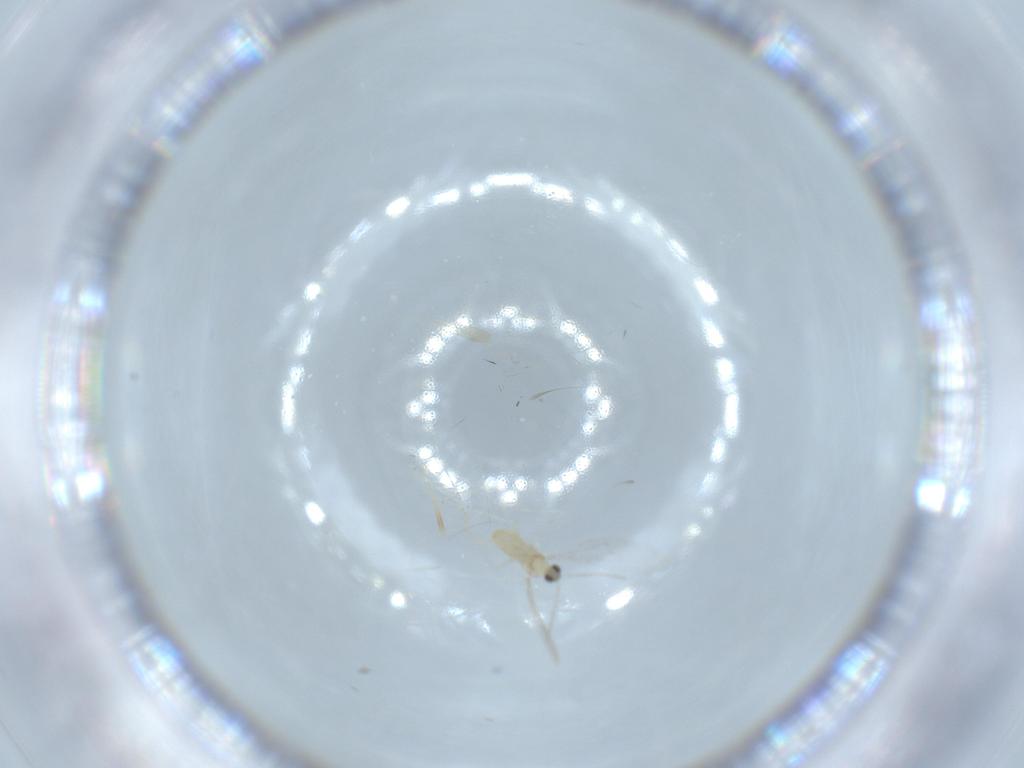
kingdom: Animalia
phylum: Arthropoda
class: Insecta
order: Diptera
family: Cecidomyiidae
